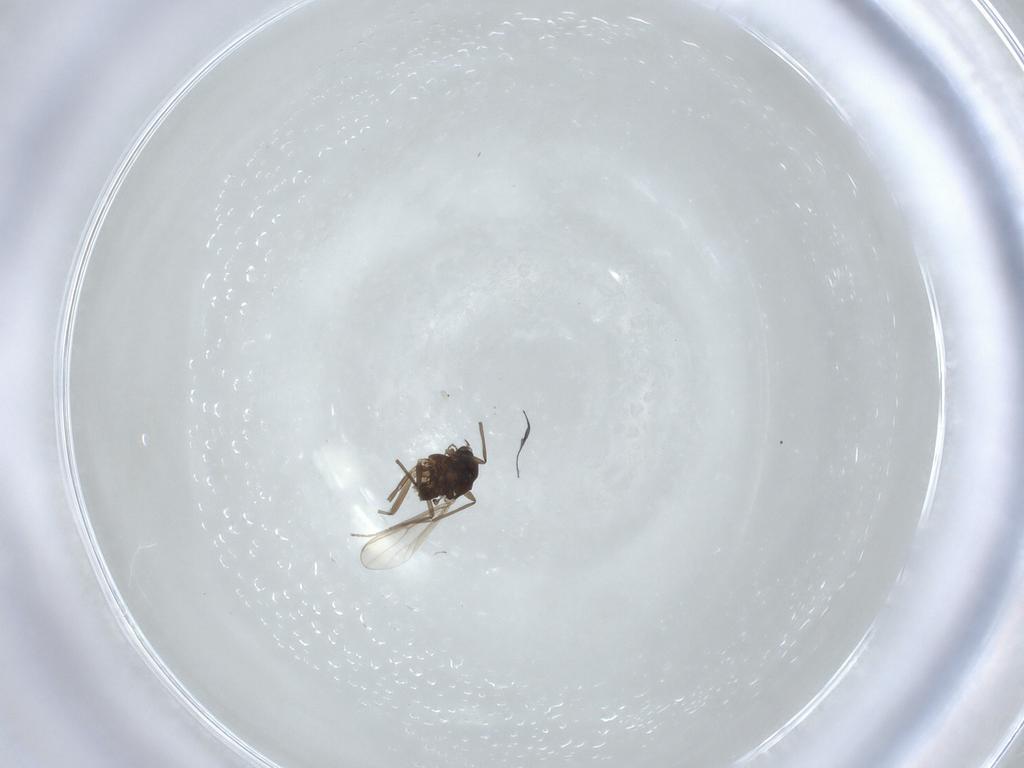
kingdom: Animalia
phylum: Arthropoda
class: Insecta
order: Diptera
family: Chironomidae
